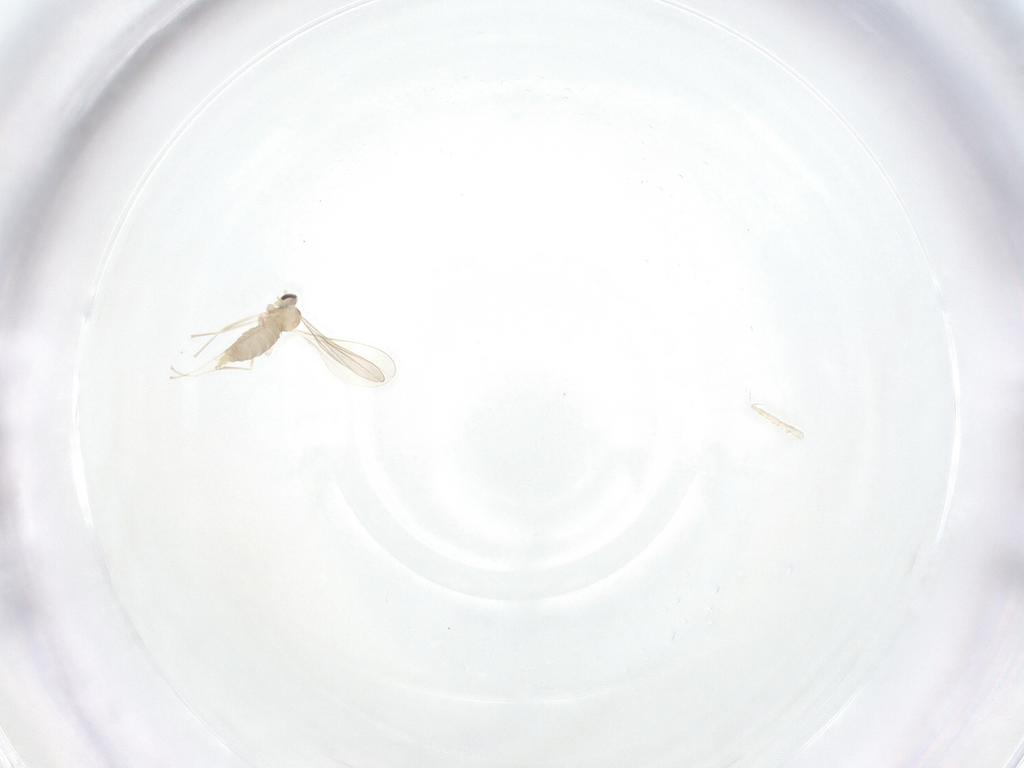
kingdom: Animalia
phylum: Arthropoda
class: Insecta
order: Diptera
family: Cecidomyiidae
